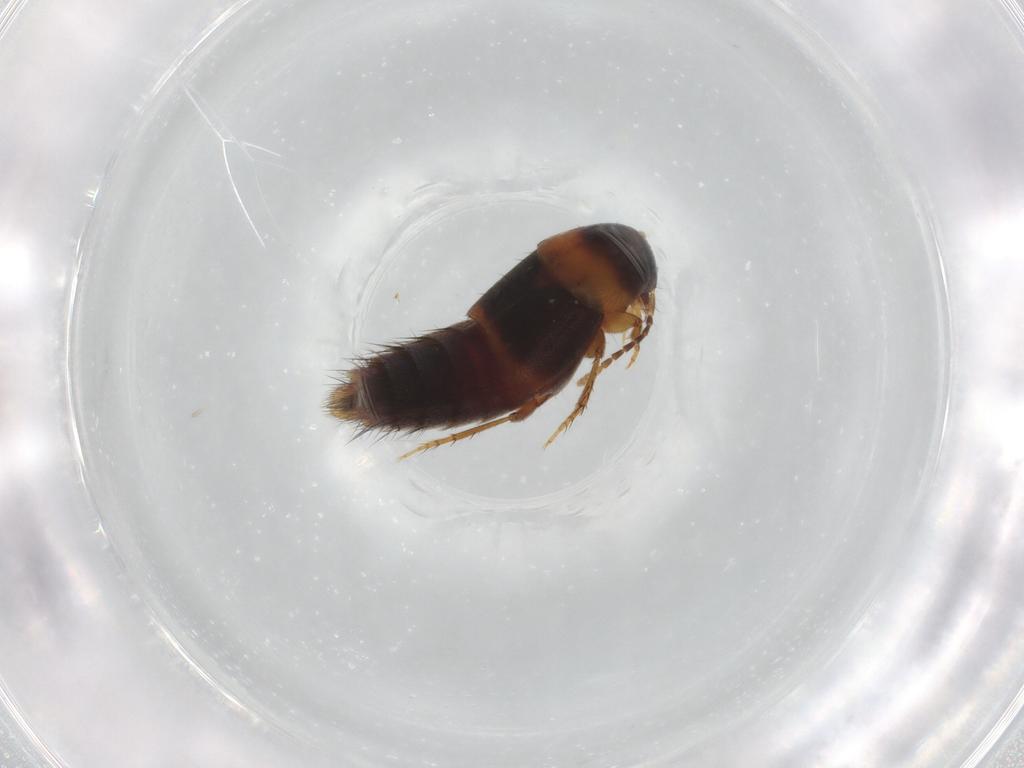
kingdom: Animalia
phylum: Arthropoda
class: Insecta
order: Coleoptera
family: Staphylinidae
